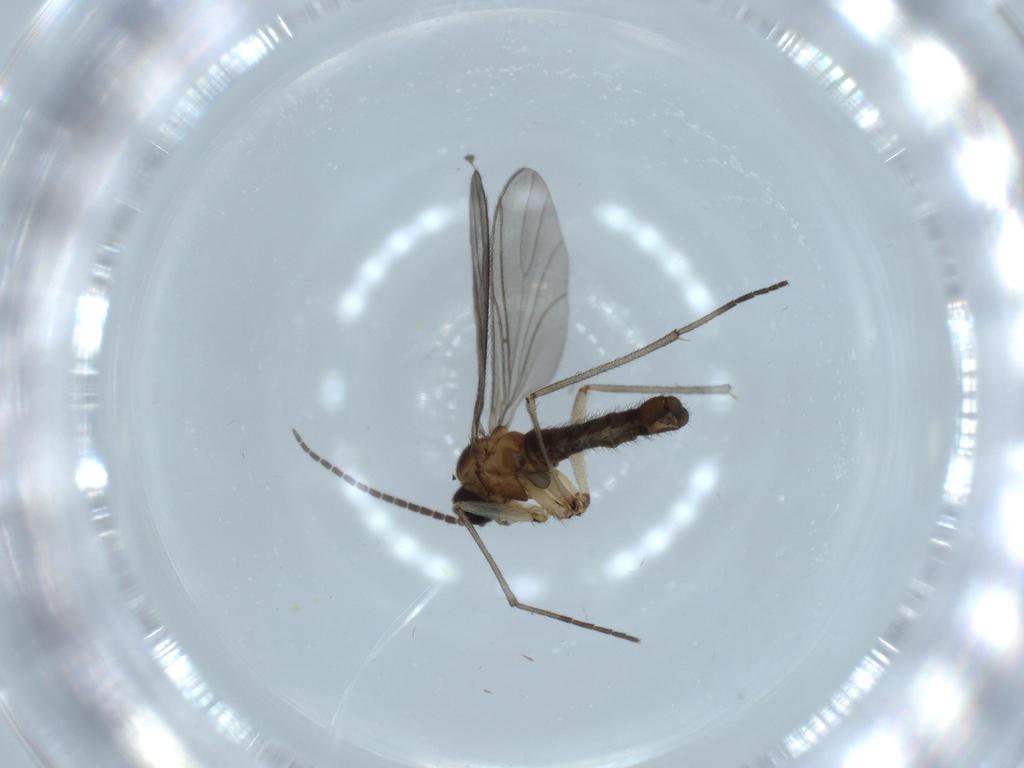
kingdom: Animalia
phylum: Arthropoda
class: Insecta
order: Diptera
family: Sciaridae
